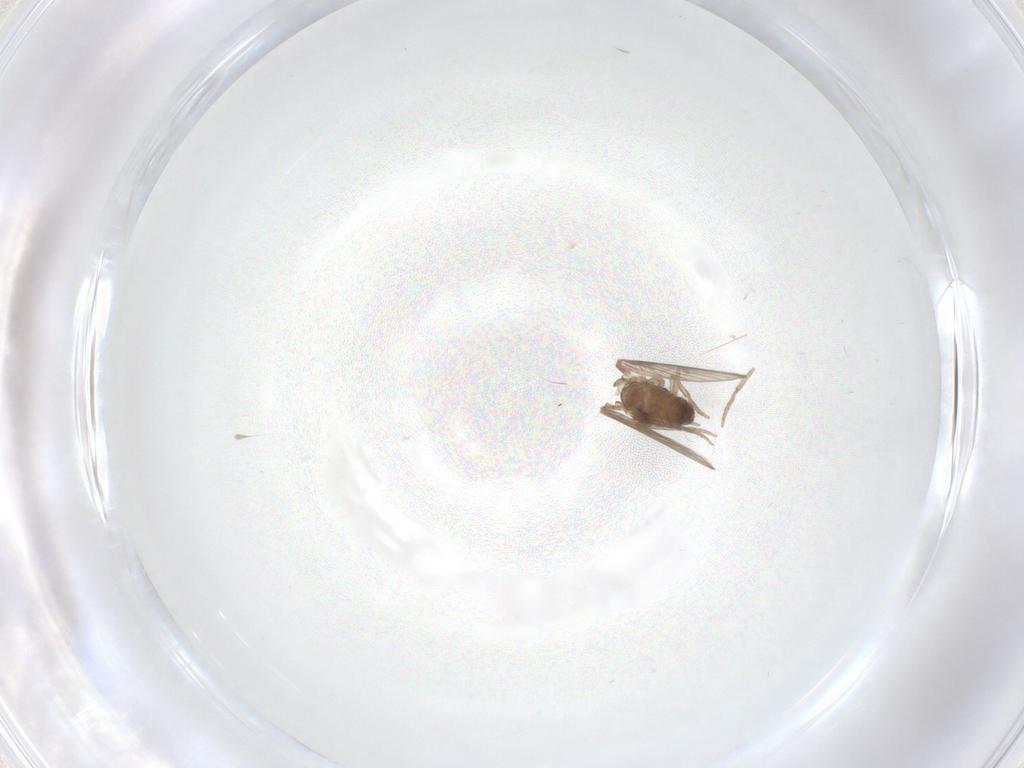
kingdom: Animalia
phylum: Arthropoda
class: Insecta
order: Diptera
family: Psychodidae
